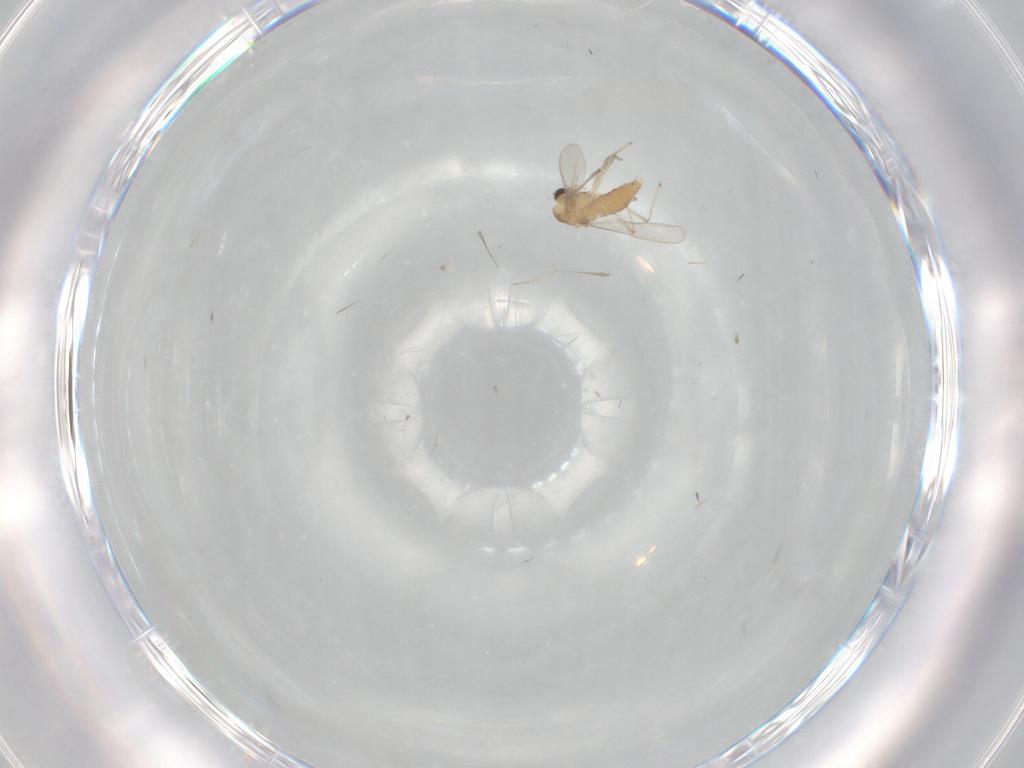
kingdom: Animalia
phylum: Arthropoda
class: Insecta
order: Diptera
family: Chironomidae
